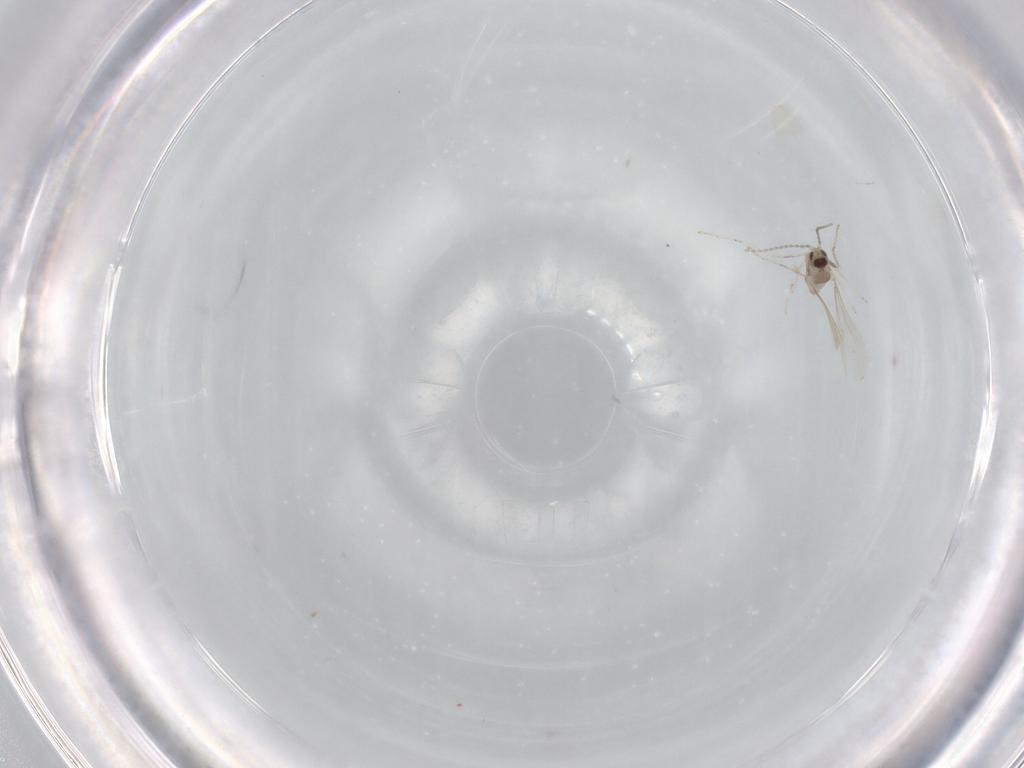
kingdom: Animalia
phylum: Arthropoda
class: Insecta
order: Diptera
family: Cecidomyiidae
